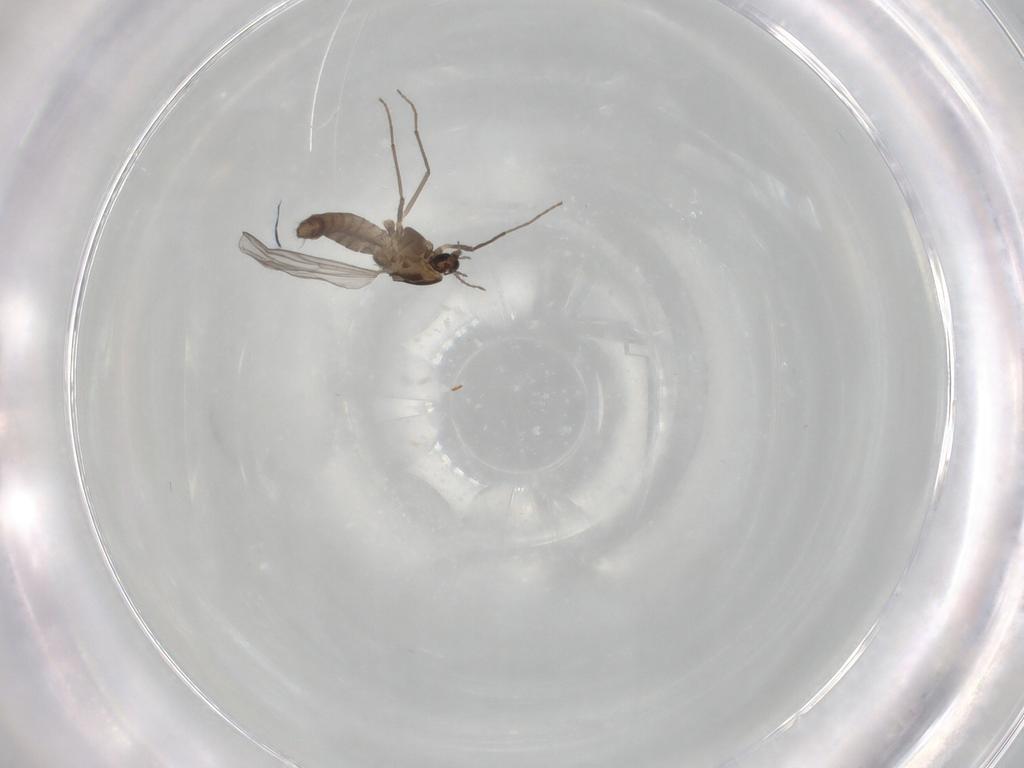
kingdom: Animalia
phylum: Arthropoda
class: Insecta
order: Diptera
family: Chironomidae
